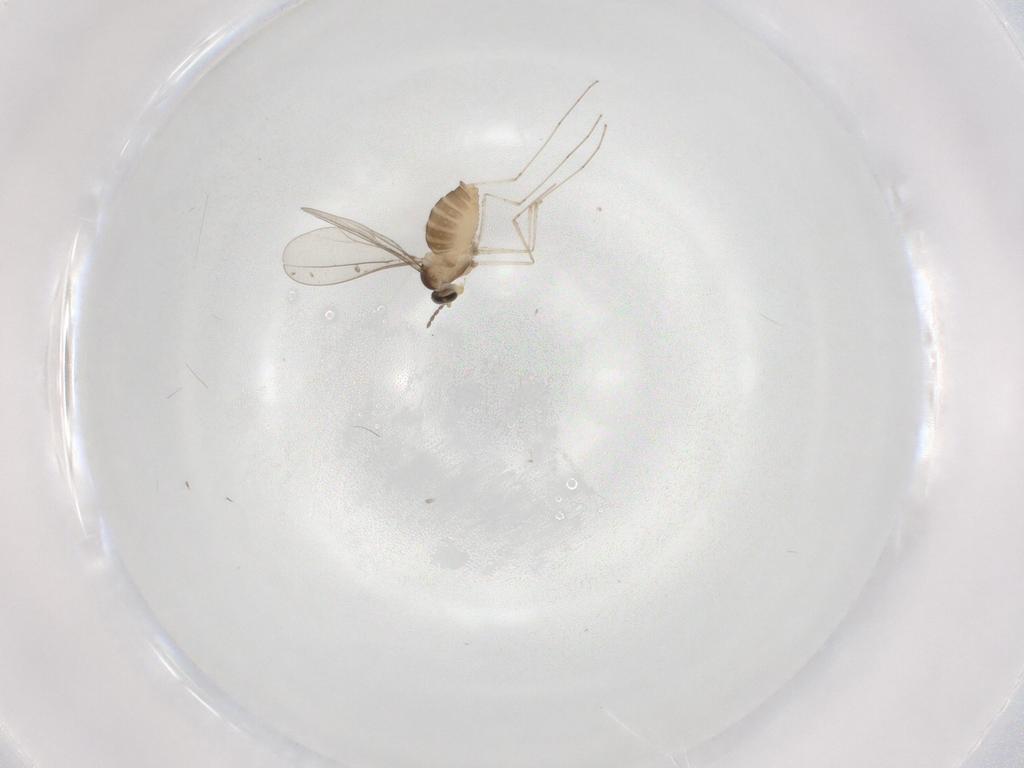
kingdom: Animalia
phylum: Arthropoda
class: Insecta
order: Diptera
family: Cecidomyiidae
